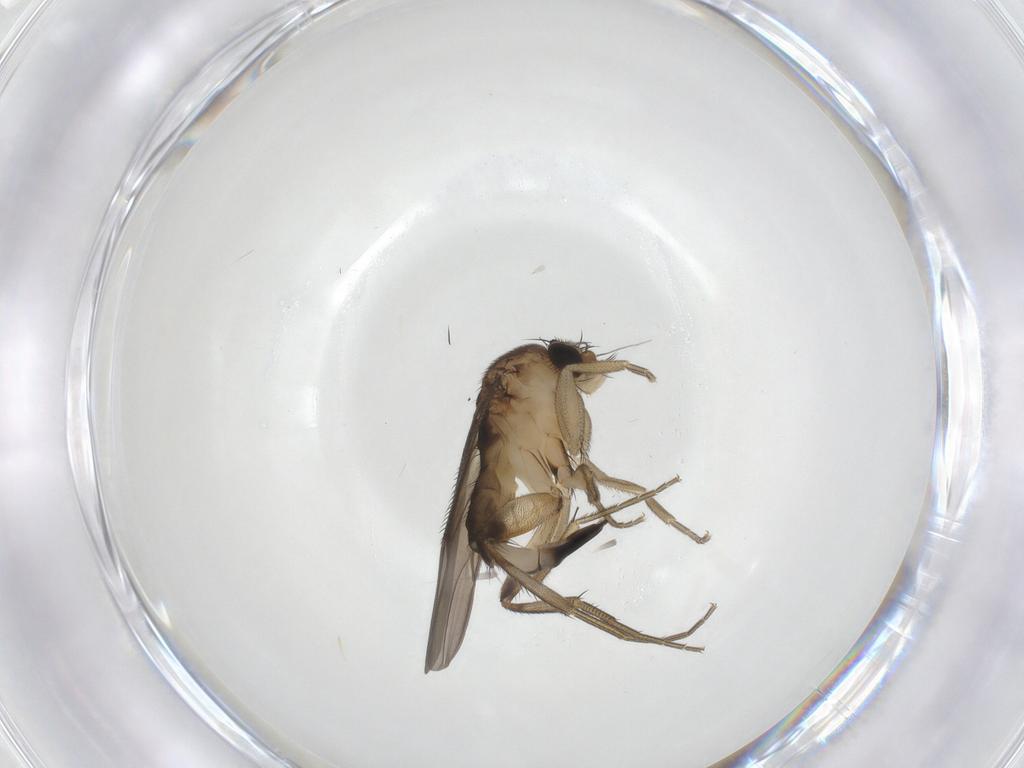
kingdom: Animalia
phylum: Arthropoda
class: Insecta
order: Diptera
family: Phoridae
